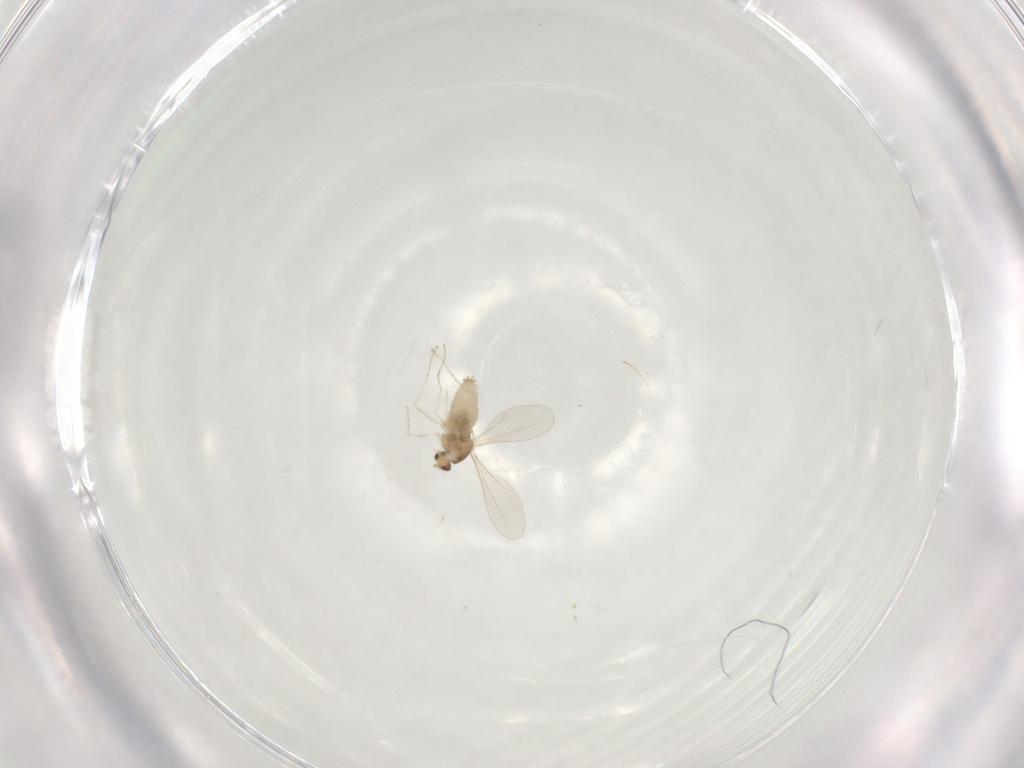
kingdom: Animalia
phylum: Arthropoda
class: Insecta
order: Diptera
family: Cecidomyiidae
